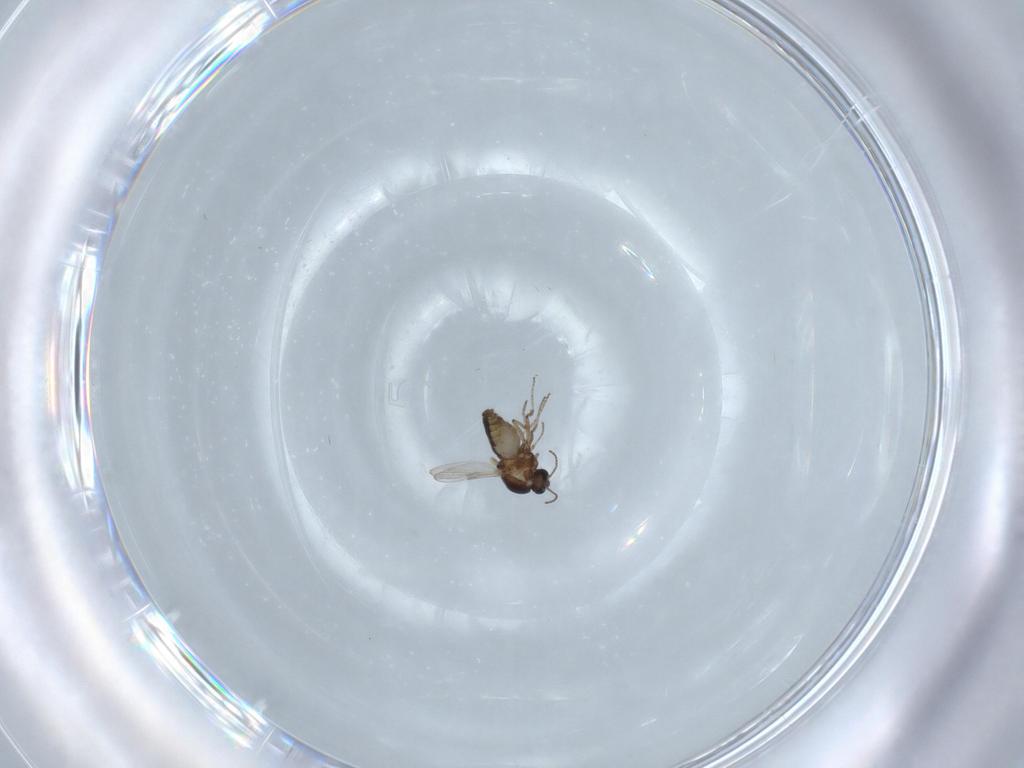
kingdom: Animalia
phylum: Arthropoda
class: Insecta
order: Diptera
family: Ceratopogonidae
